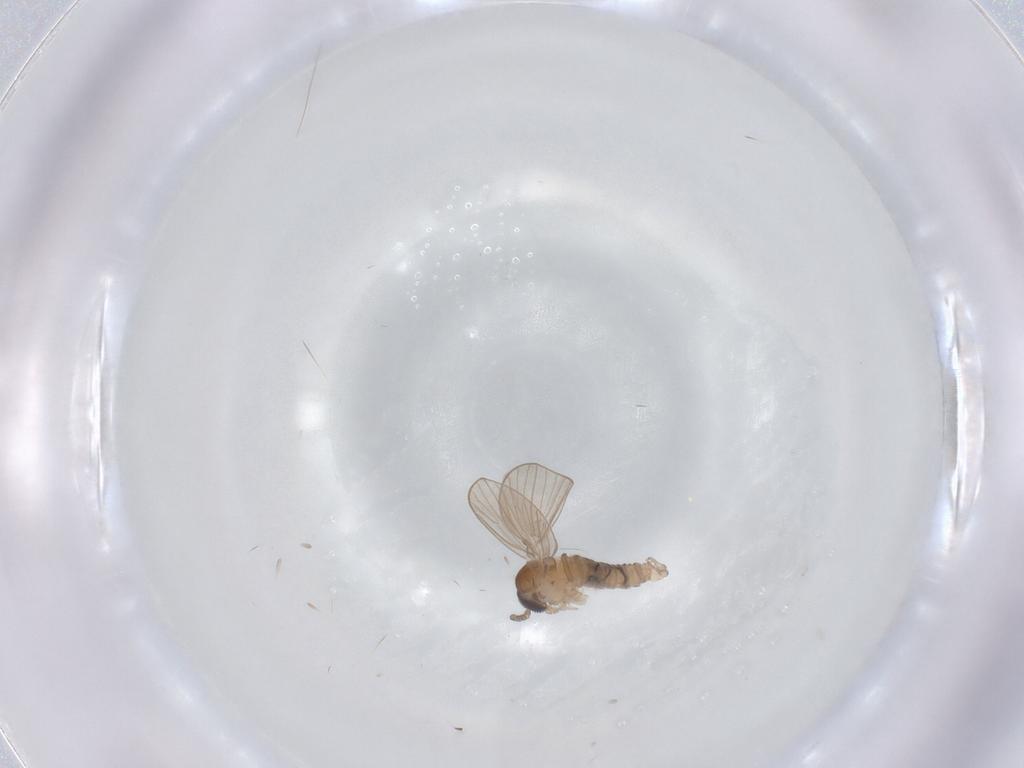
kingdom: Animalia
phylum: Arthropoda
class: Insecta
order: Diptera
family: Psychodidae
